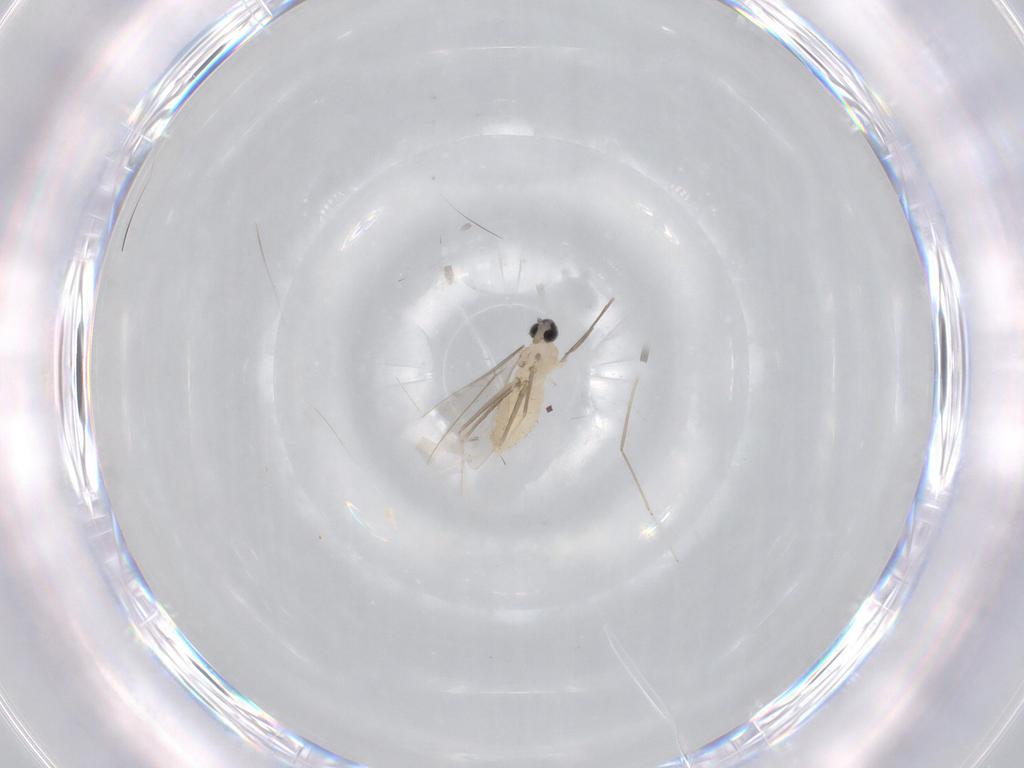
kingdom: Animalia
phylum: Arthropoda
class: Insecta
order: Diptera
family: Cecidomyiidae
